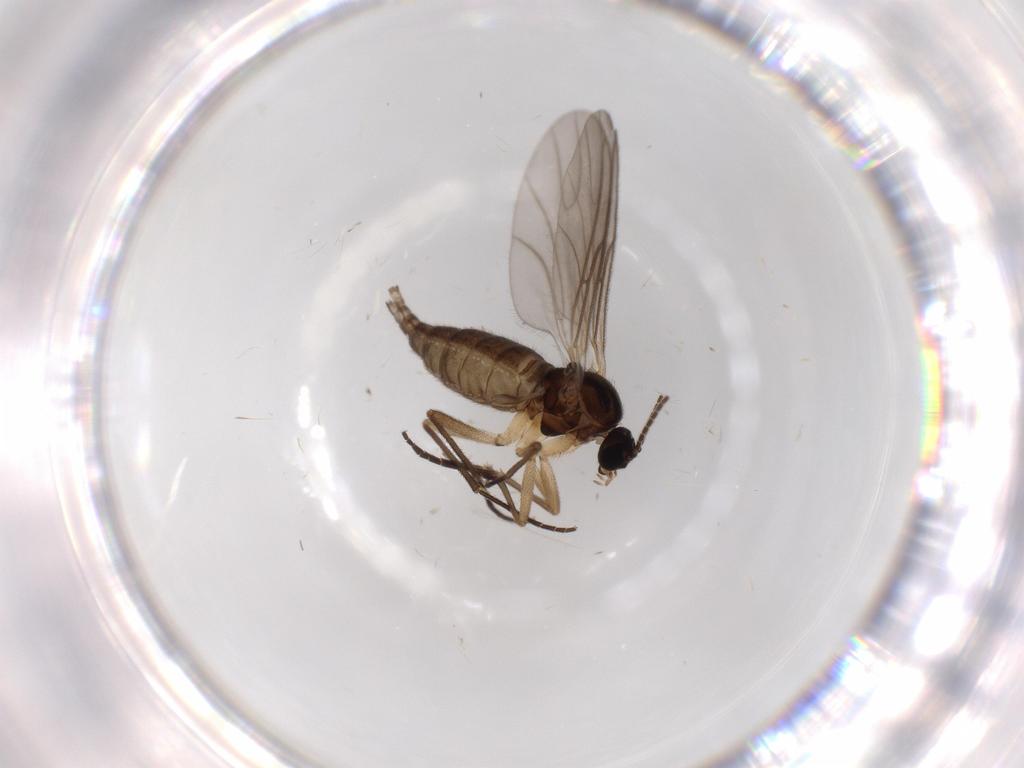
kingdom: Animalia
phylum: Arthropoda
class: Insecta
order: Diptera
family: Sciaridae
